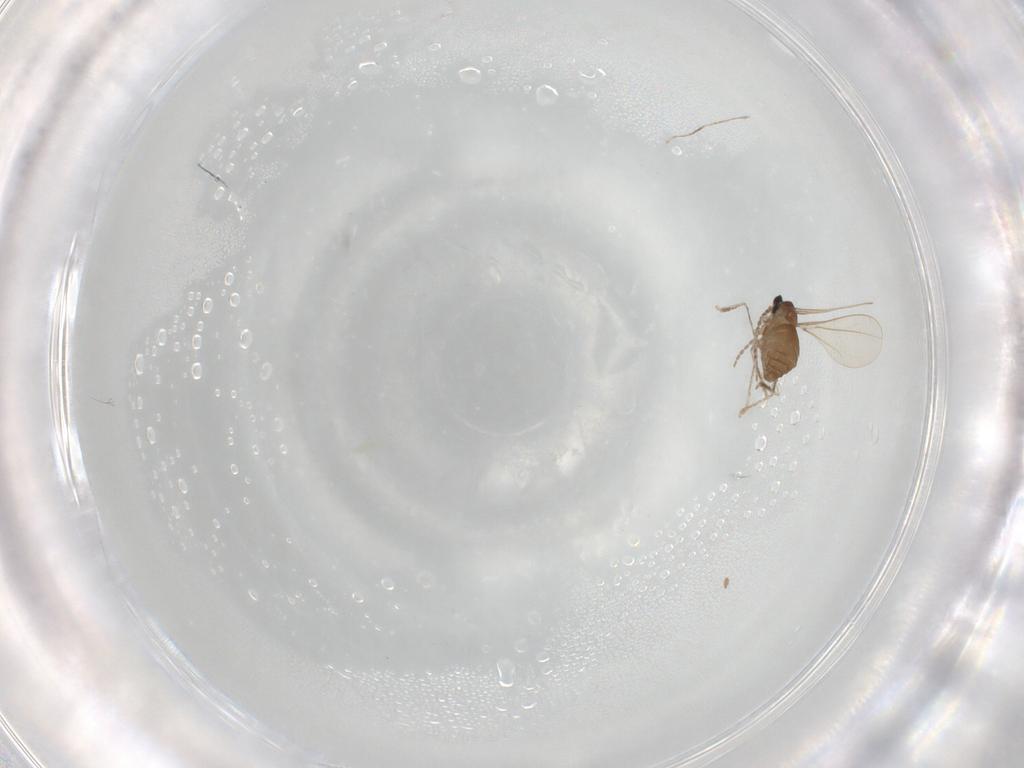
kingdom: Animalia
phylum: Arthropoda
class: Insecta
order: Diptera
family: Cecidomyiidae
